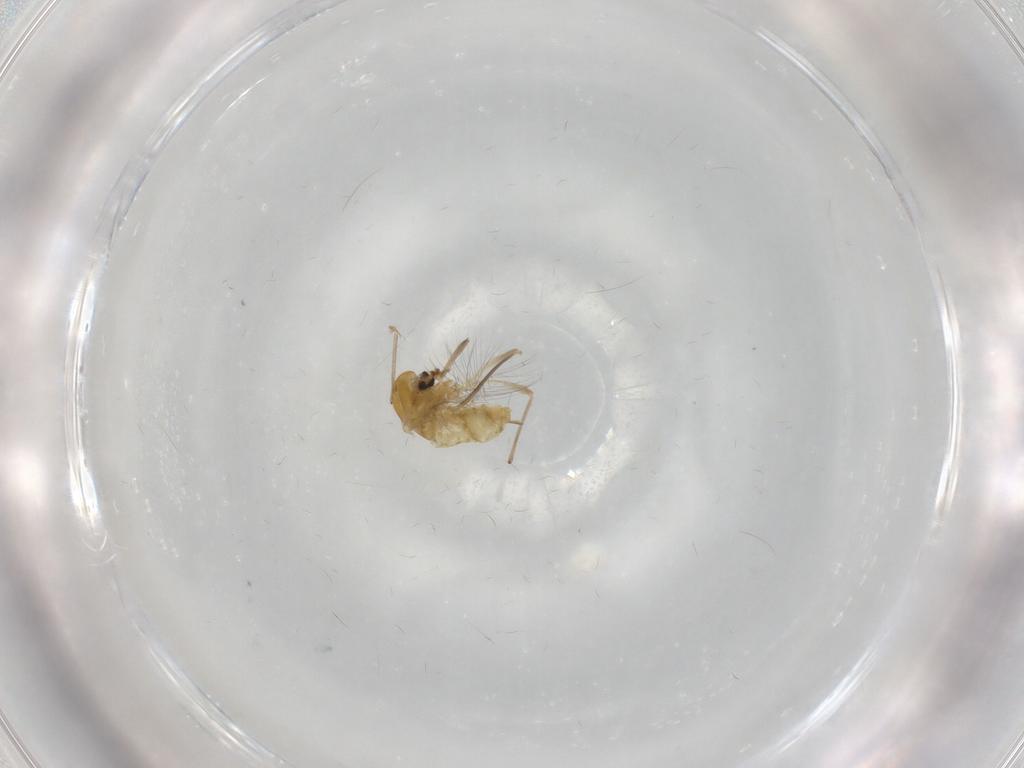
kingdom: Animalia
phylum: Arthropoda
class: Insecta
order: Diptera
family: Chironomidae
